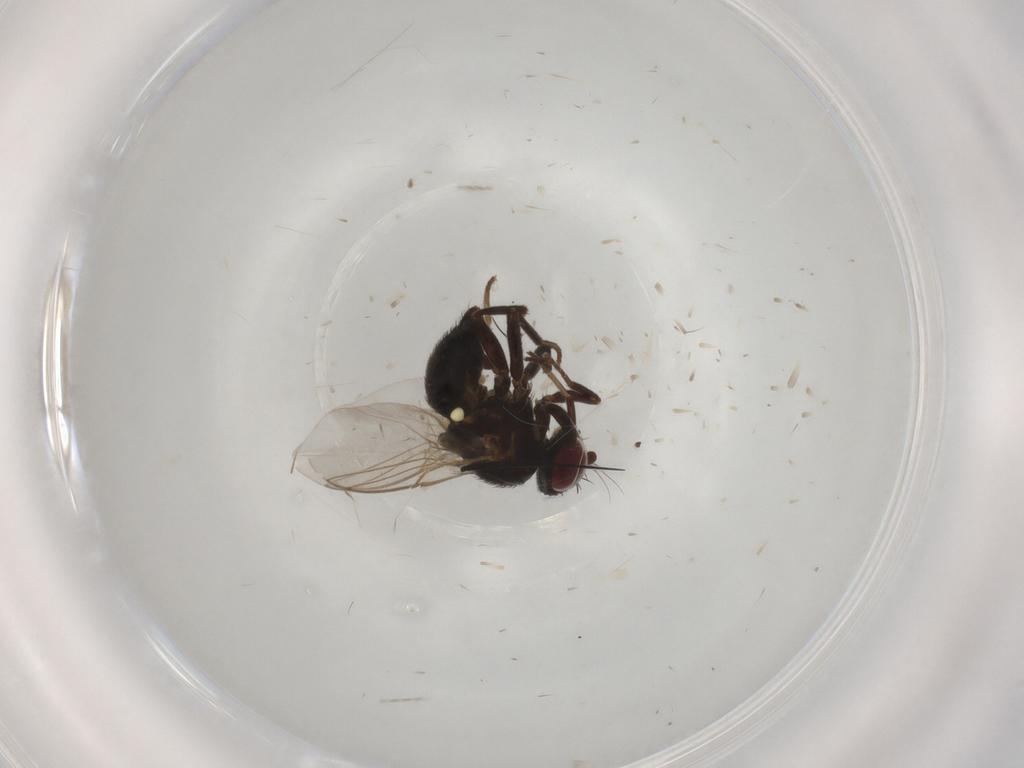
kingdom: Animalia
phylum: Arthropoda
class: Insecta
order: Diptera
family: Agromyzidae
